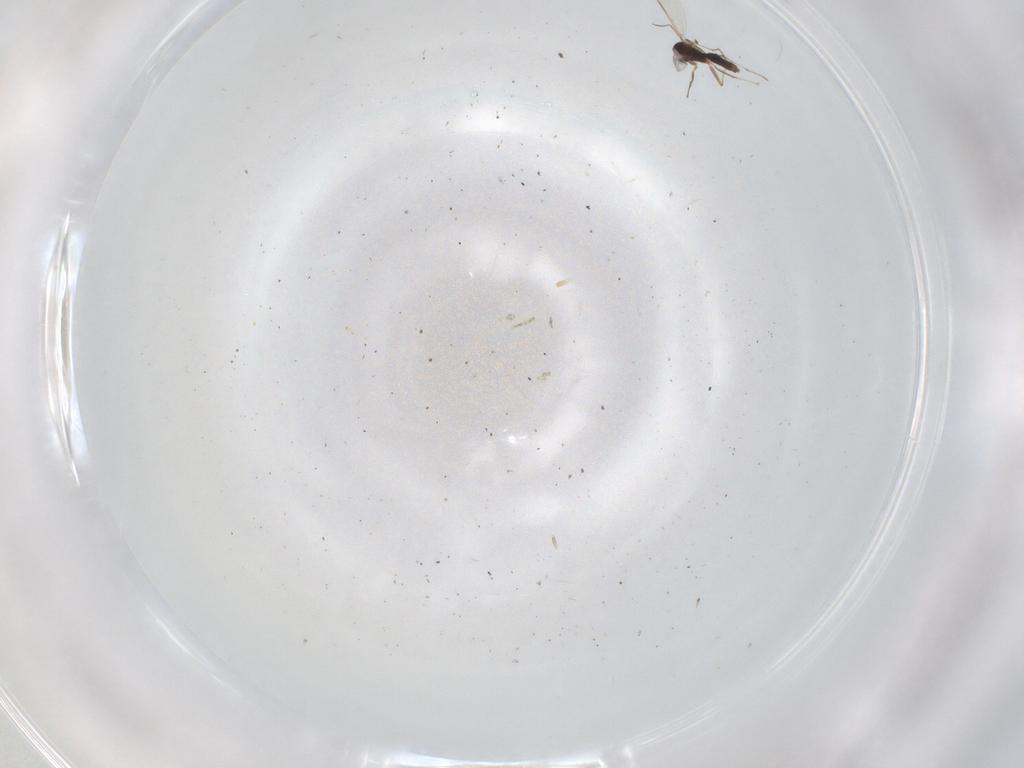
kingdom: Animalia
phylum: Arthropoda
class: Insecta
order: Diptera
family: Chironomidae
